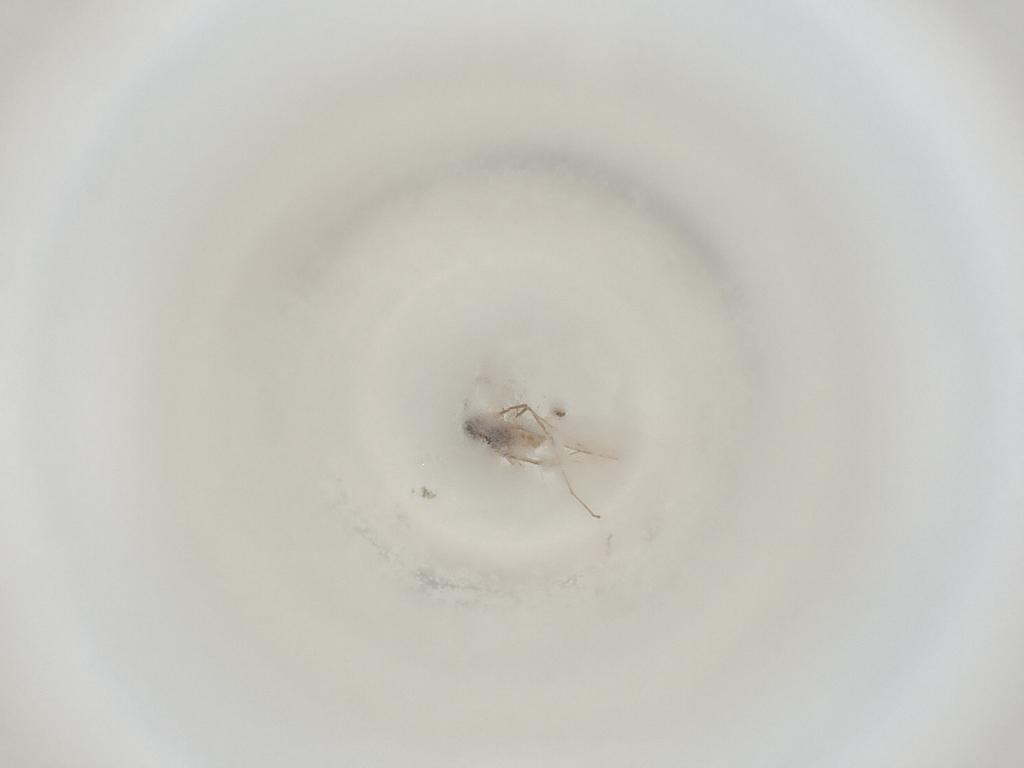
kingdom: Animalia
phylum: Arthropoda
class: Insecta
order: Diptera
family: Cecidomyiidae
